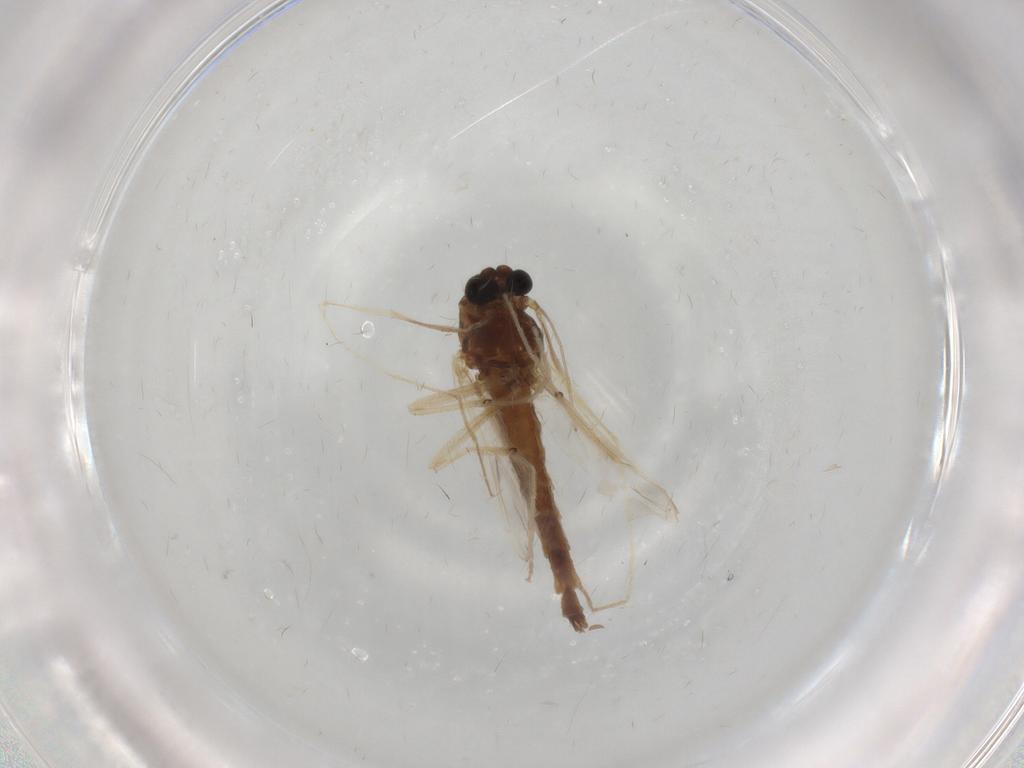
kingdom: Animalia
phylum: Arthropoda
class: Insecta
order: Diptera
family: Chironomidae
